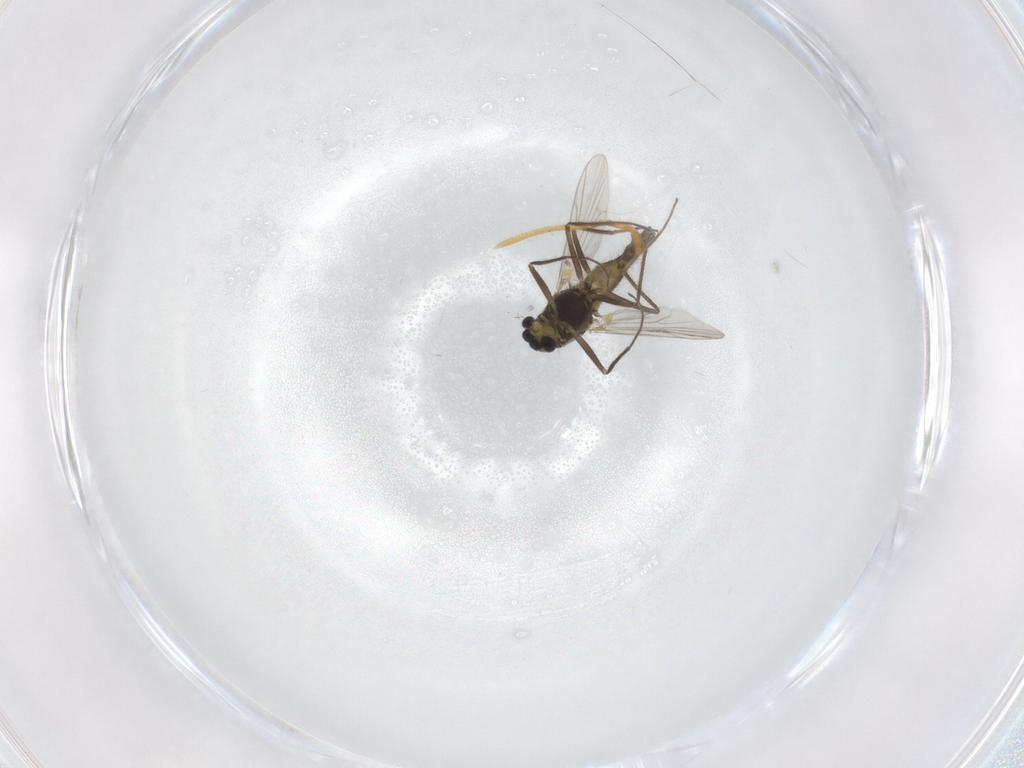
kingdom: Animalia
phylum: Arthropoda
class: Insecta
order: Diptera
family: Chironomidae
